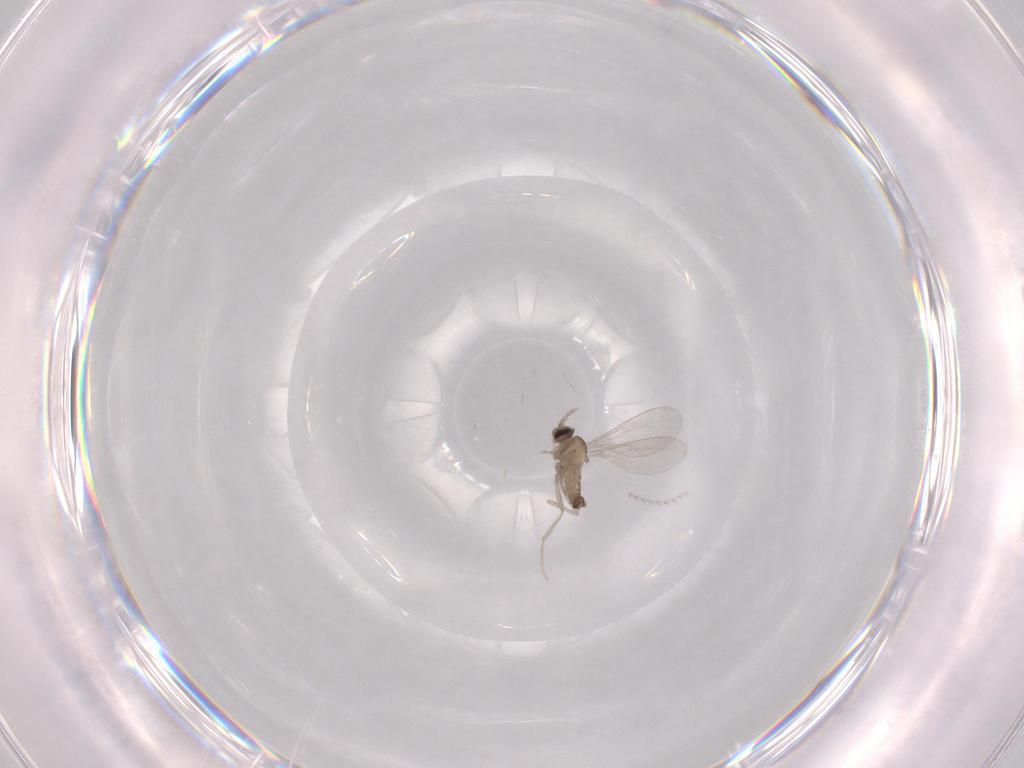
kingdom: Animalia
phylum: Arthropoda
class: Insecta
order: Diptera
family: Cecidomyiidae
